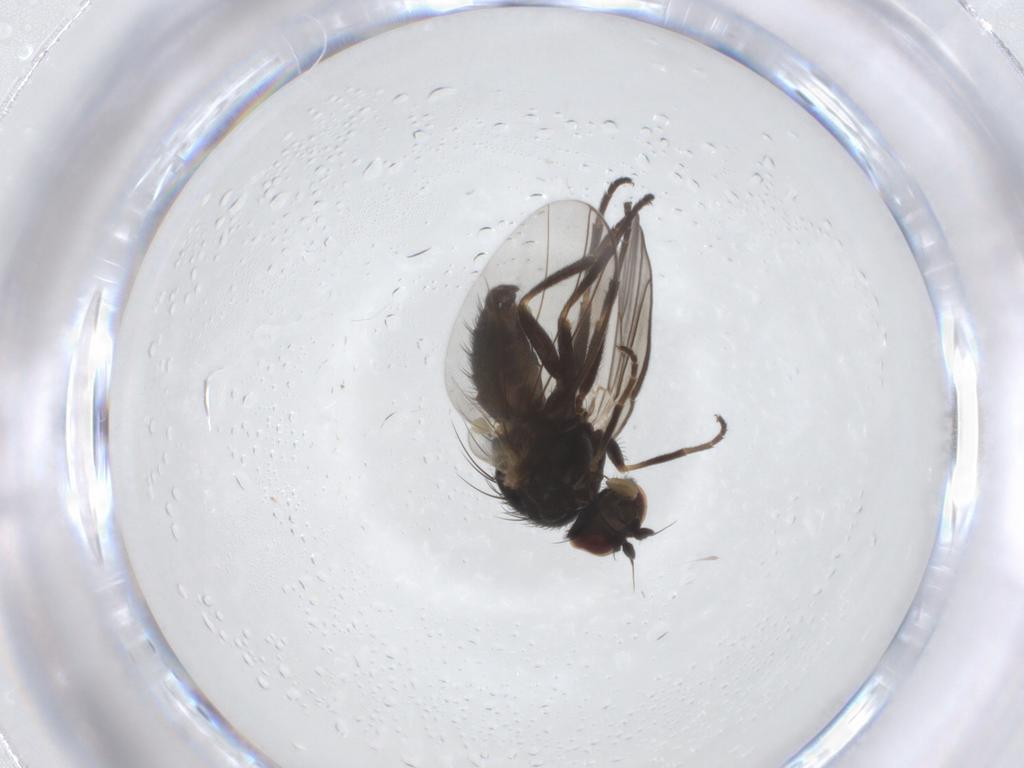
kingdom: Animalia
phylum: Arthropoda
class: Insecta
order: Diptera
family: Agromyzidae
